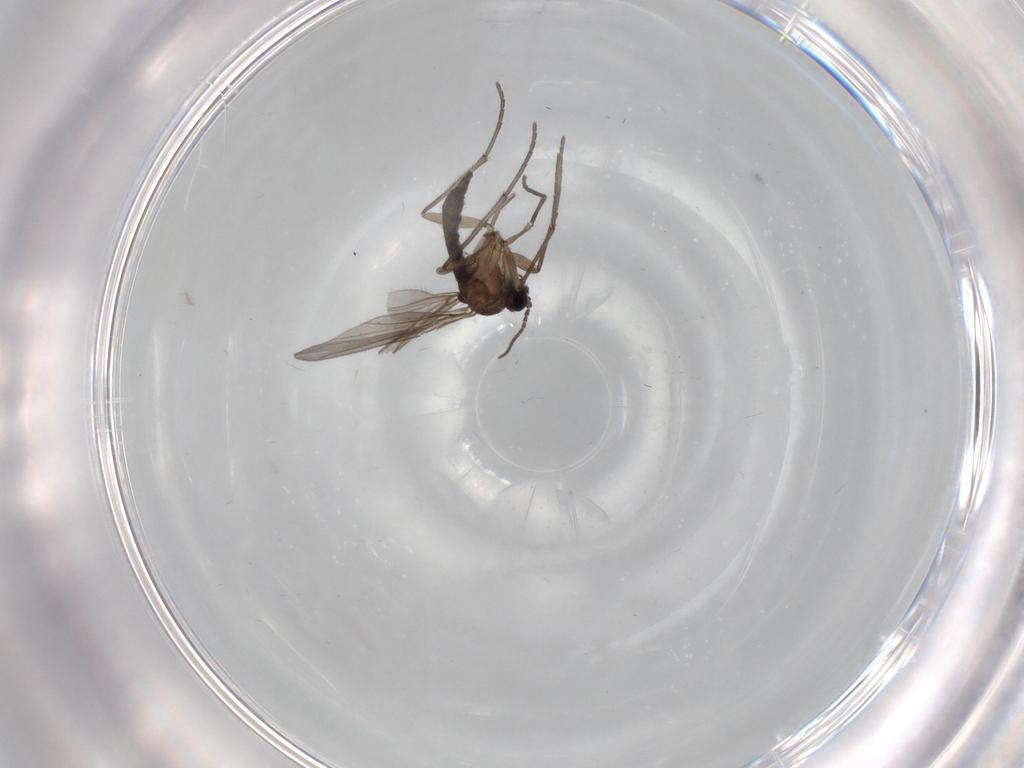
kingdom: Animalia
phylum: Arthropoda
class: Insecta
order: Diptera
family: Sciaridae
